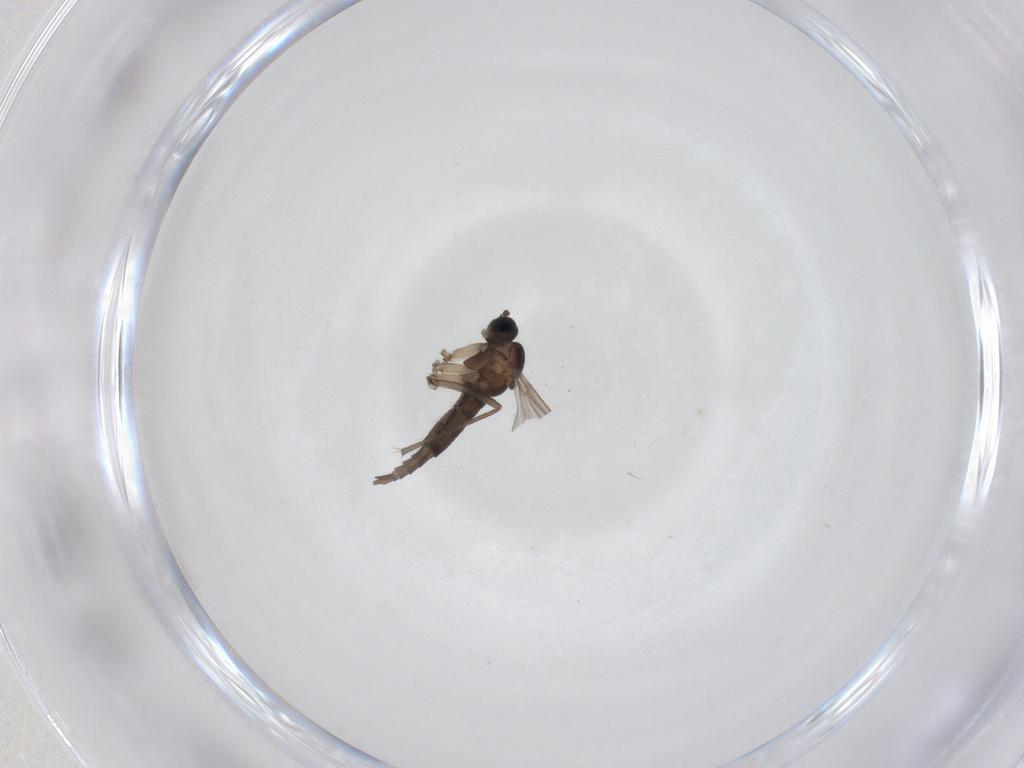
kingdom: Animalia
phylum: Arthropoda
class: Insecta
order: Diptera
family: Sciaridae
